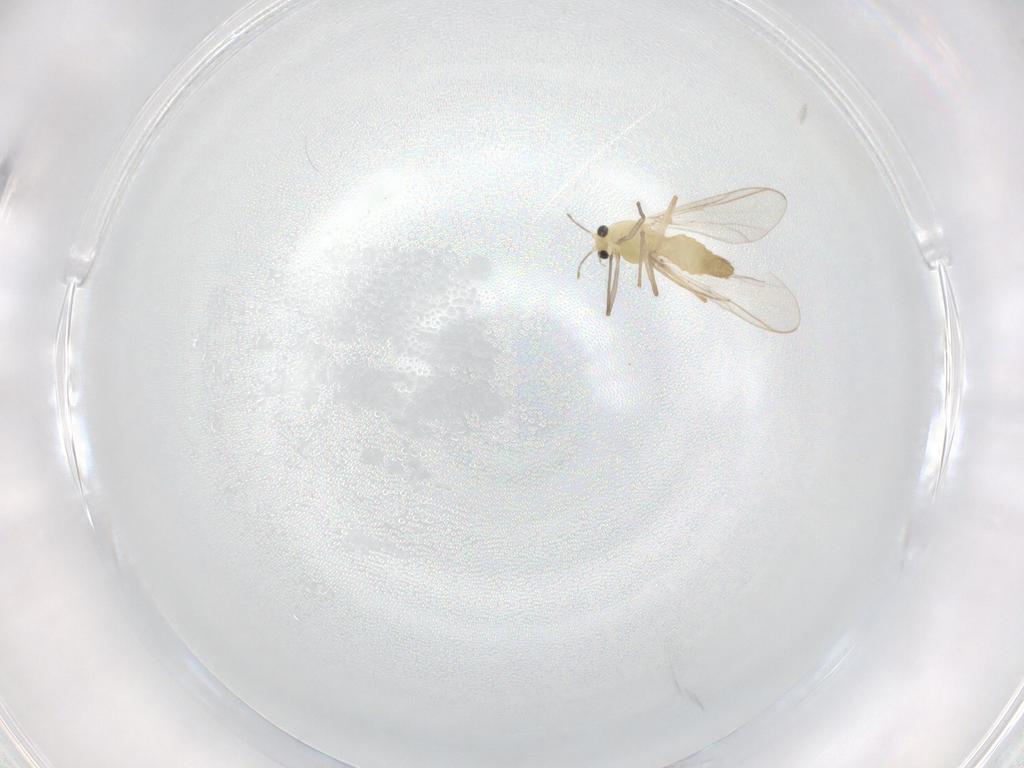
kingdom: Animalia
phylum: Arthropoda
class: Insecta
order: Diptera
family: Chironomidae
